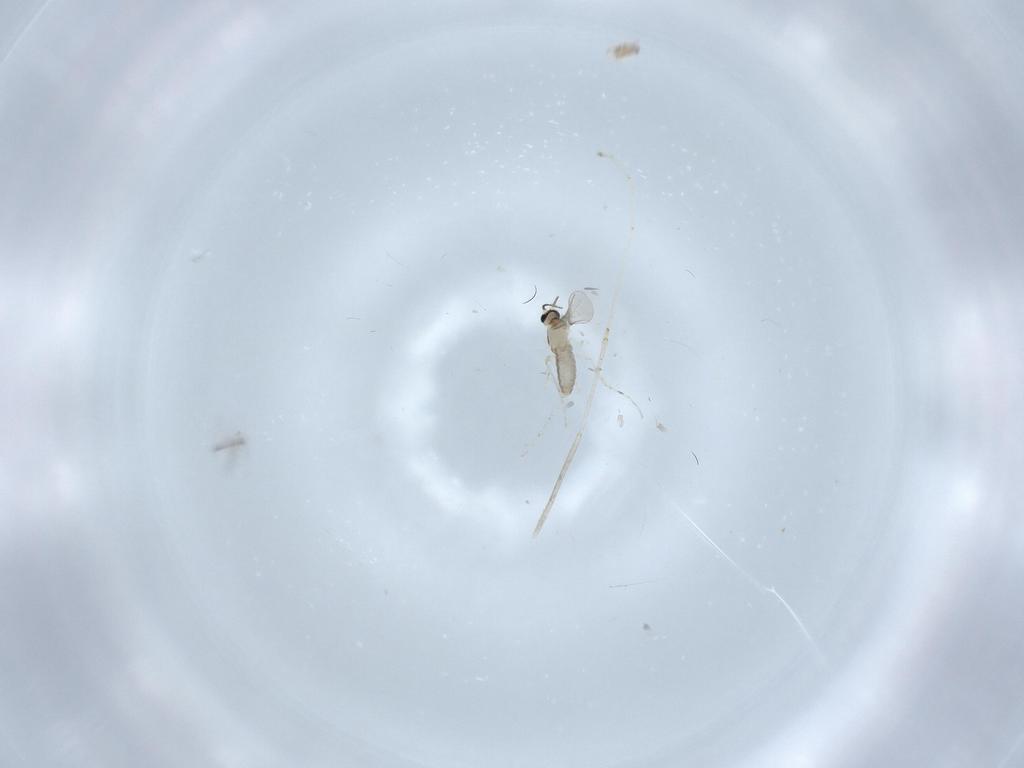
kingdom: Animalia
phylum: Arthropoda
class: Insecta
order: Diptera
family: Cecidomyiidae
